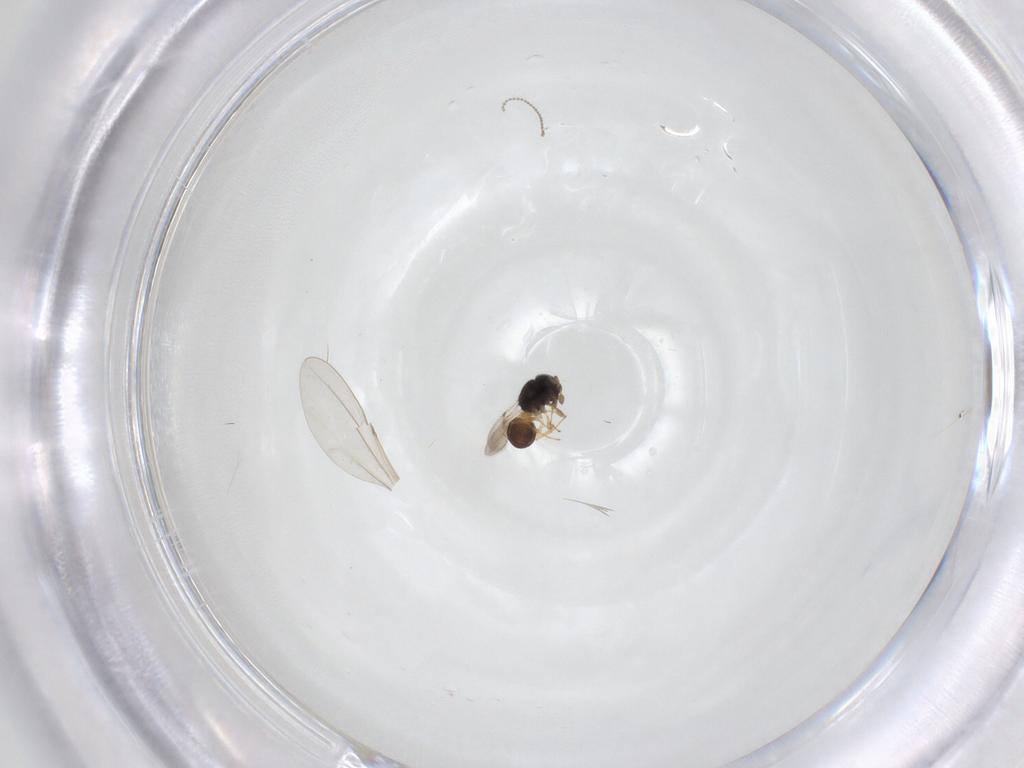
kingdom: Animalia
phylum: Arthropoda
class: Insecta
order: Hymenoptera
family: Scelionidae
